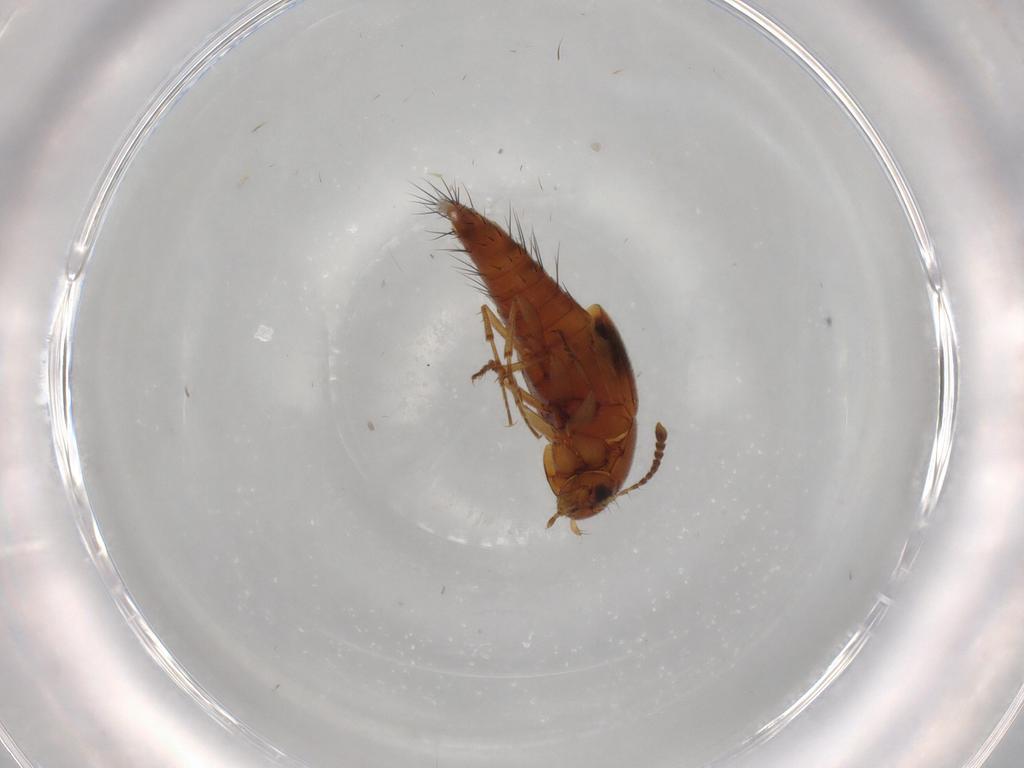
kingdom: Animalia
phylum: Arthropoda
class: Insecta
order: Coleoptera
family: Staphylinidae
